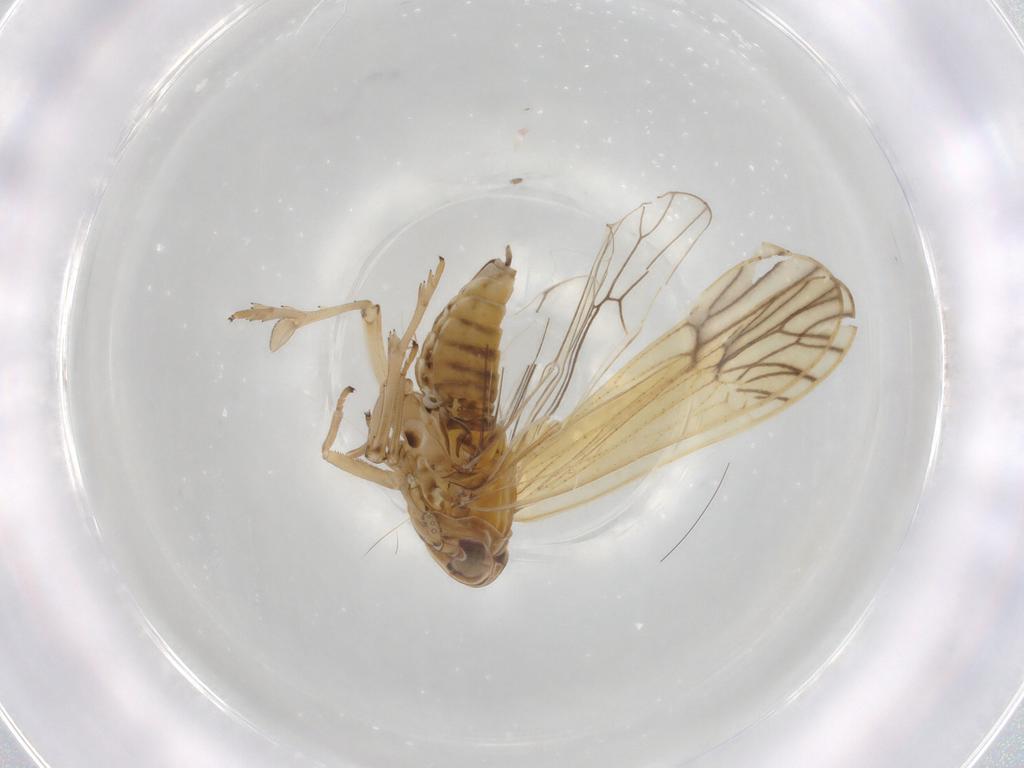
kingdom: Animalia
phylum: Arthropoda
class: Insecta
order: Hemiptera
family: Delphacidae
